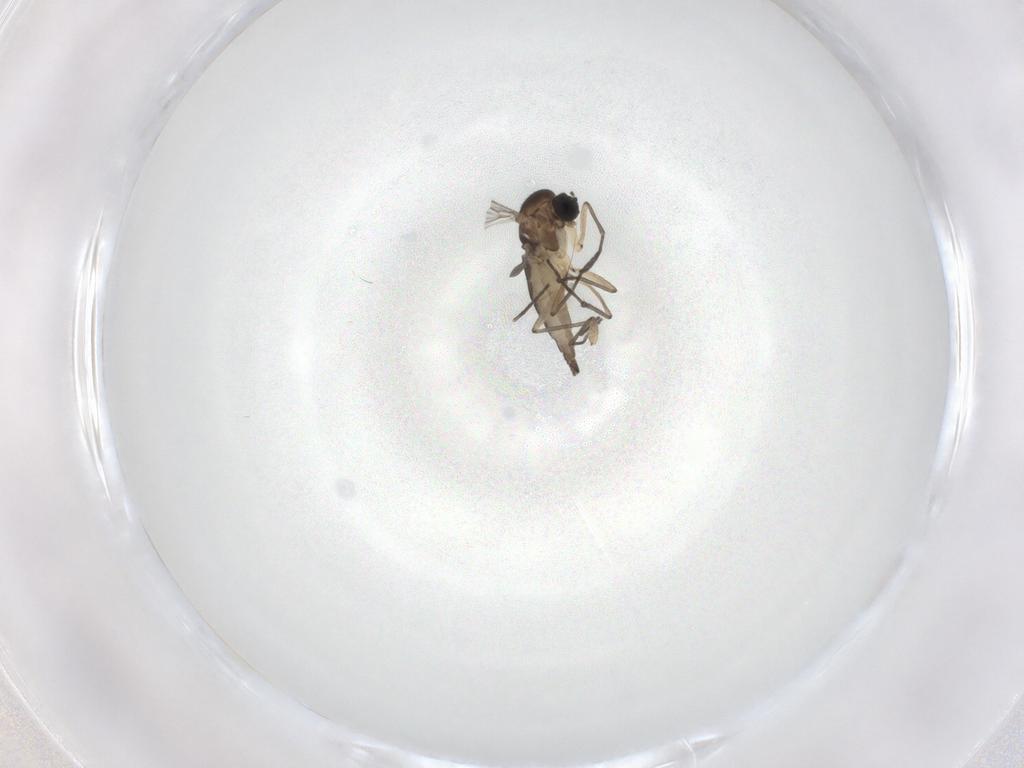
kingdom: Animalia
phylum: Arthropoda
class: Insecta
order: Diptera
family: Sciaridae
